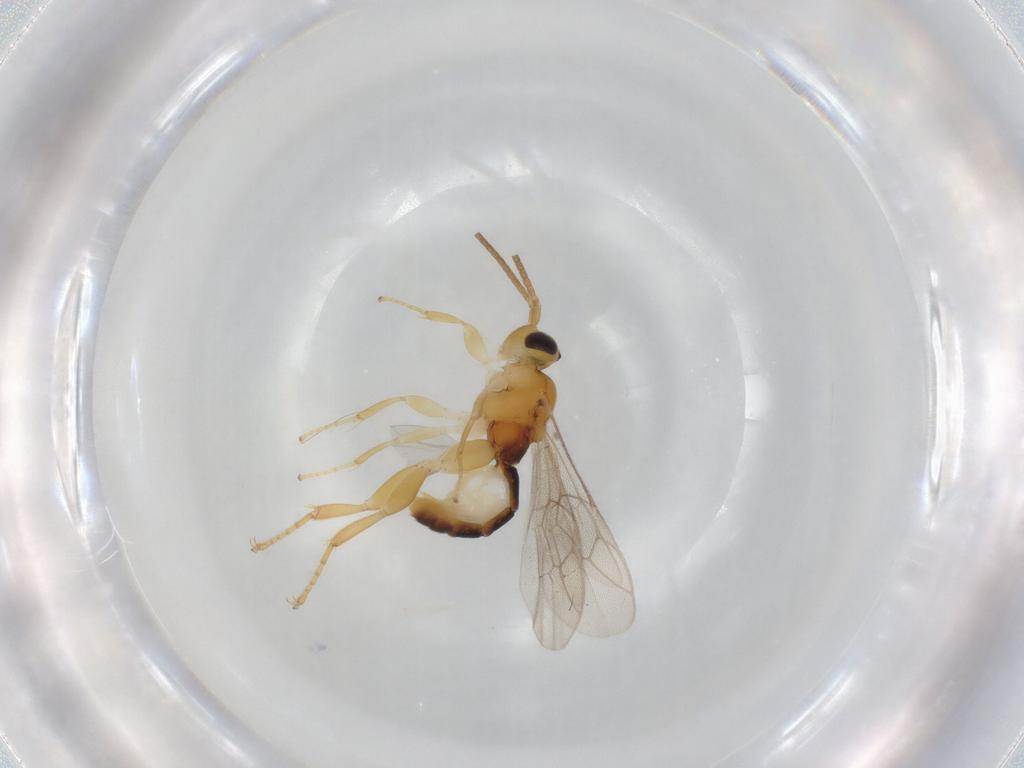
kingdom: Animalia
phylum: Arthropoda
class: Insecta
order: Hymenoptera
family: Ichneumonidae
